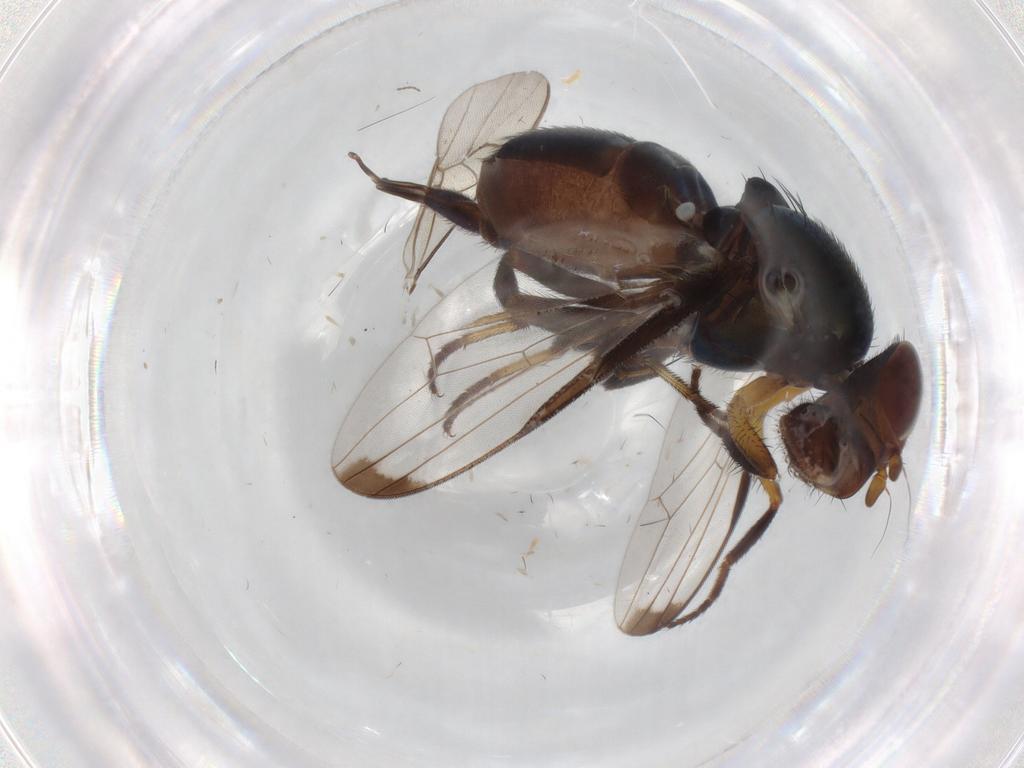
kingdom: Animalia
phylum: Arthropoda
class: Insecta
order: Diptera
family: Ulidiidae
